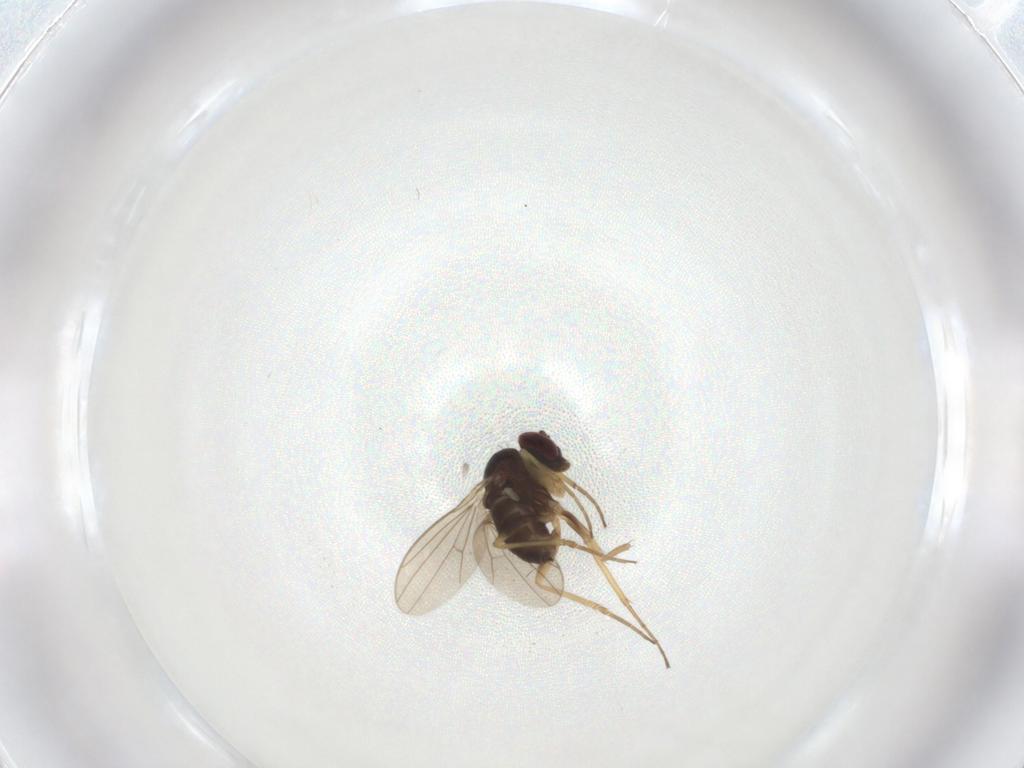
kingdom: Animalia
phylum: Arthropoda
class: Insecta
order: Diptera
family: Dolichopodidae
